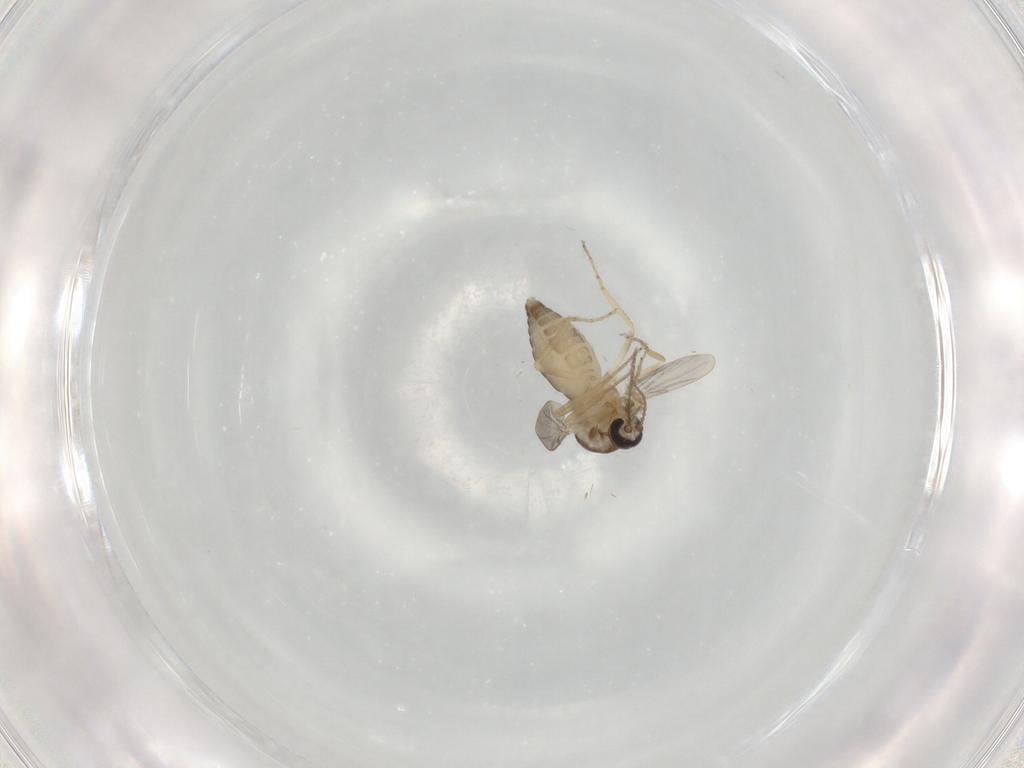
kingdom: Animalia
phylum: Arthropoda
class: Insecta
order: Diptera
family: Ceratopogonidae
